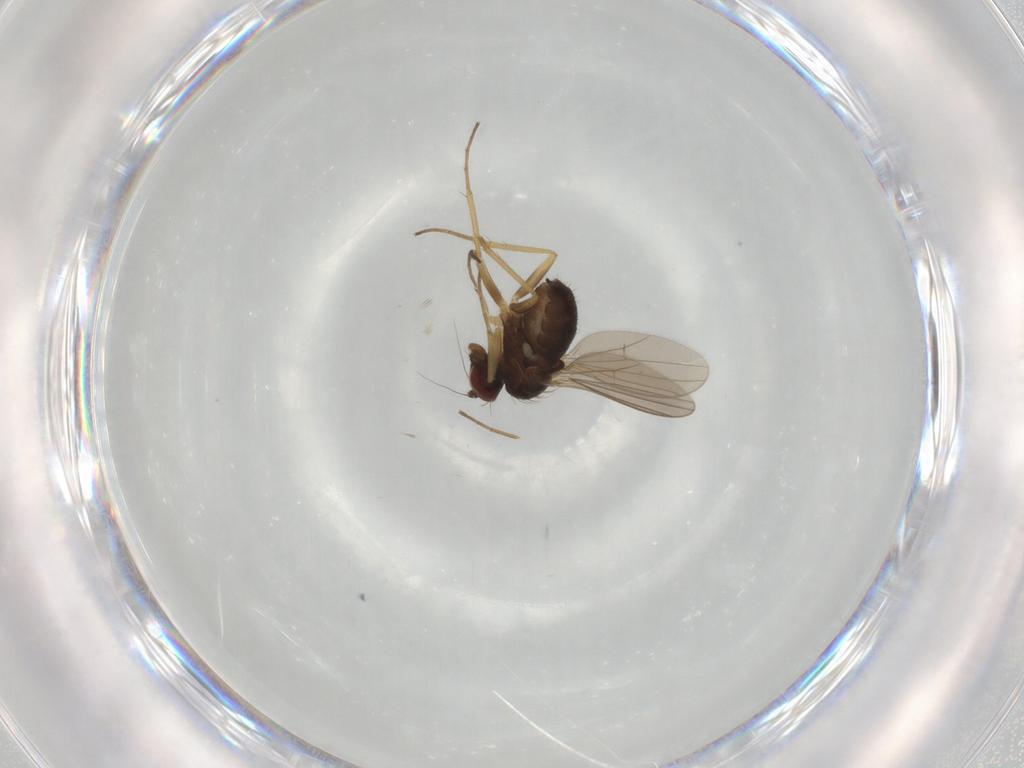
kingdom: Animalia
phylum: Arthropoda
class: Insecta
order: Diptera
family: Dolichopodidae
